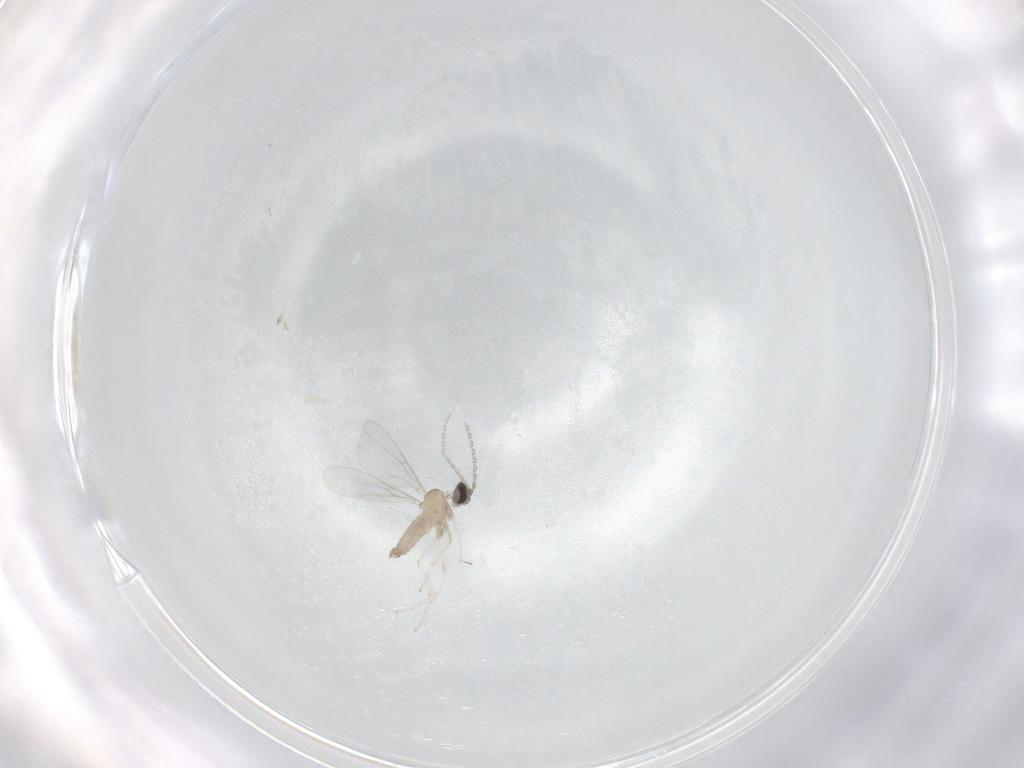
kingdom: Animalia
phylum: Arthropoda
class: Insecta
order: Diptera
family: Cecidomyiidae
